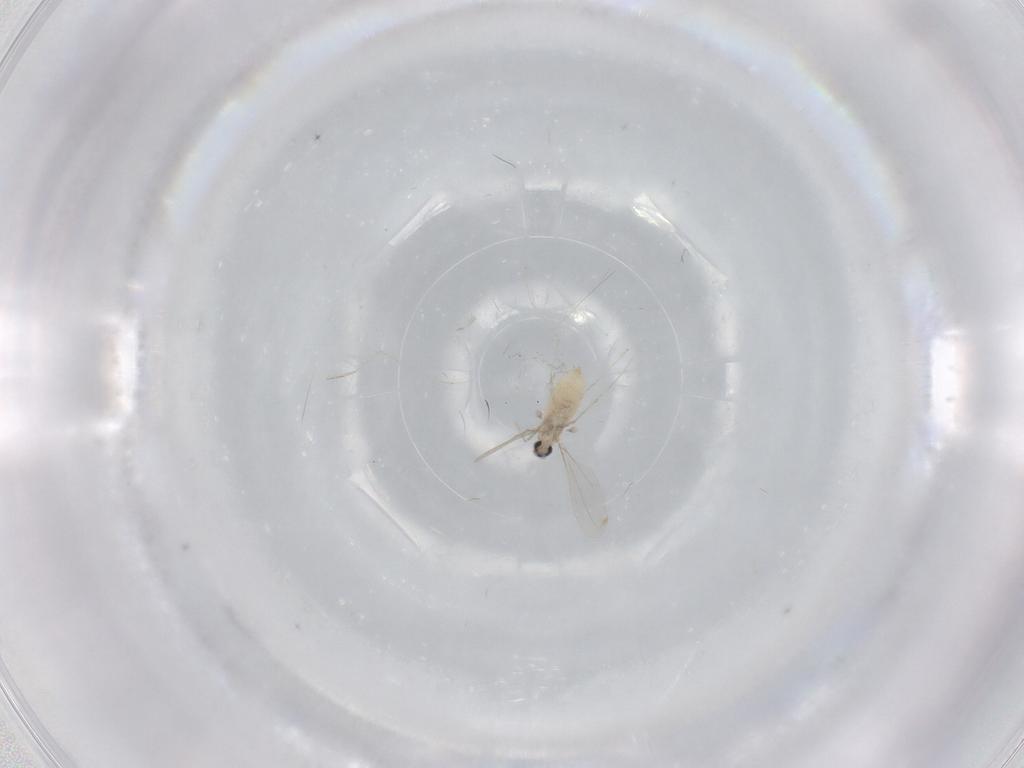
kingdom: Animalia
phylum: Arthropoda
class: Insecta
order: Diptera
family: Cecidomyiidae
